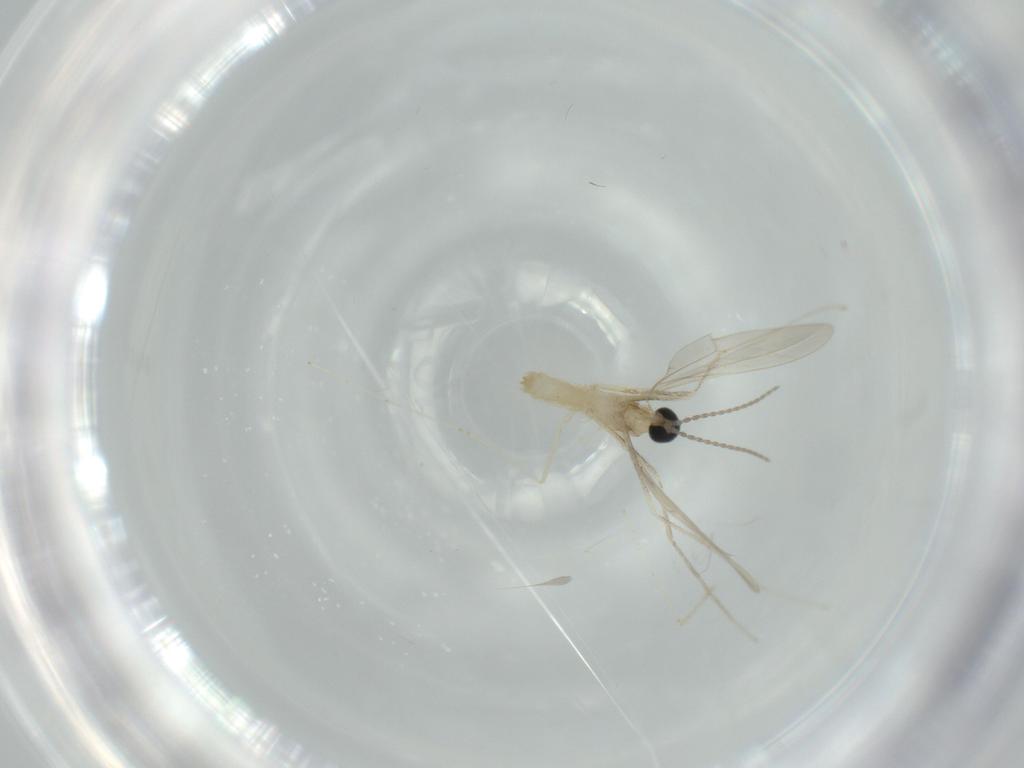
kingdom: Animalia
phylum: Arthropoda
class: Insecta
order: Diptera
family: Cecidomyiidae
